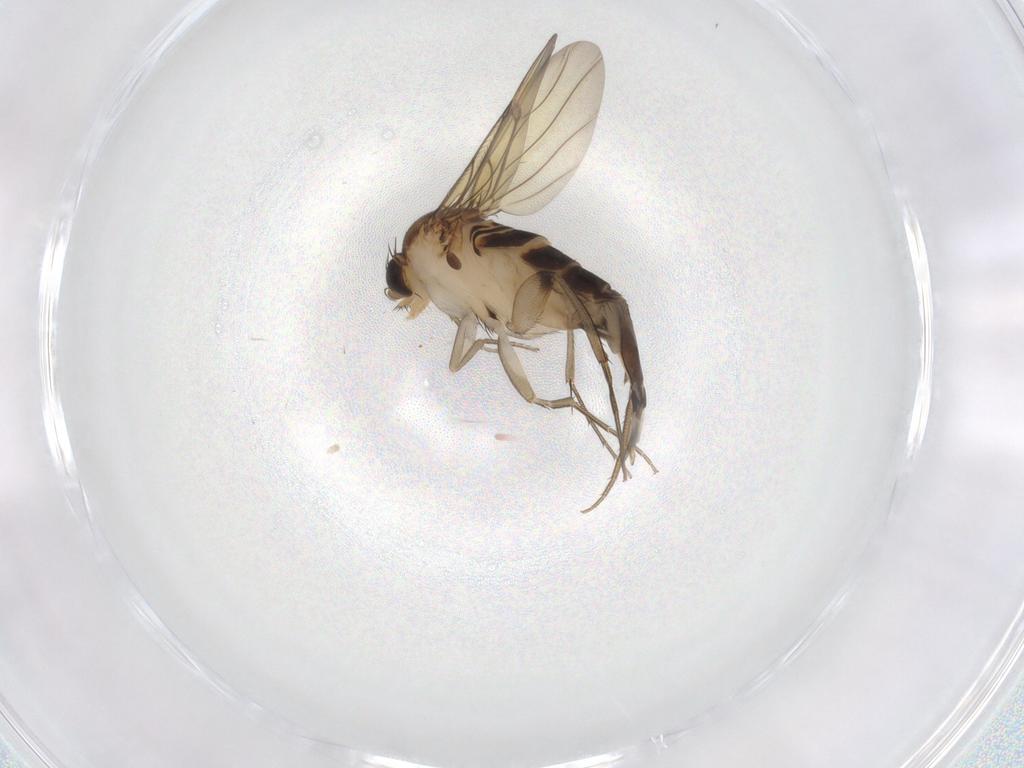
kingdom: Animalia
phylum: Arthropoda
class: Insecta
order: Diptera
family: Phoridae
